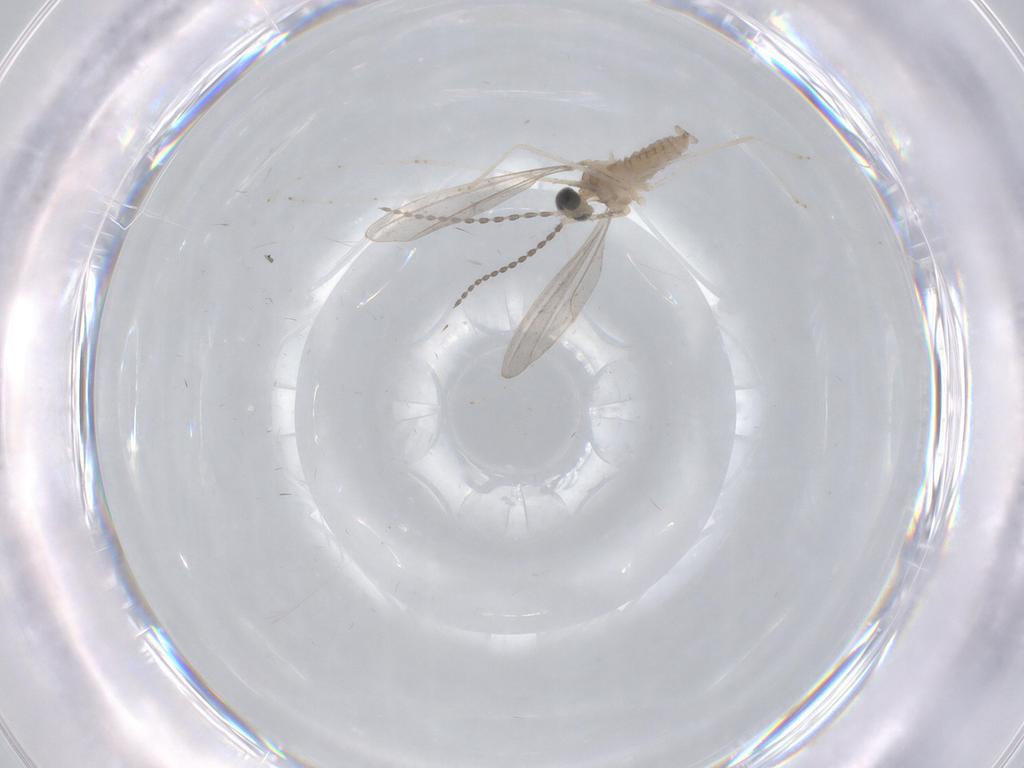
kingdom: Animalia
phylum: Arthropoda
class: Insecta
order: Diptera
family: Cecidomyiidae
